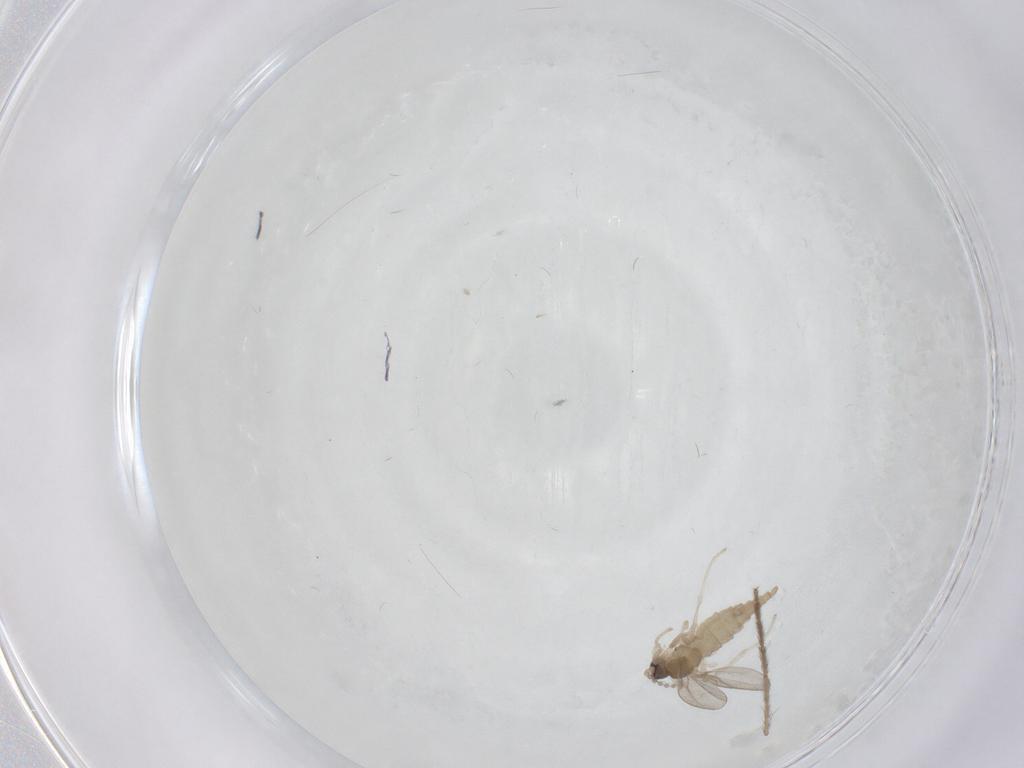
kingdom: Animalia
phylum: Arthropoda
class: Insecta
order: Diptera
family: Cecidomyiidae
